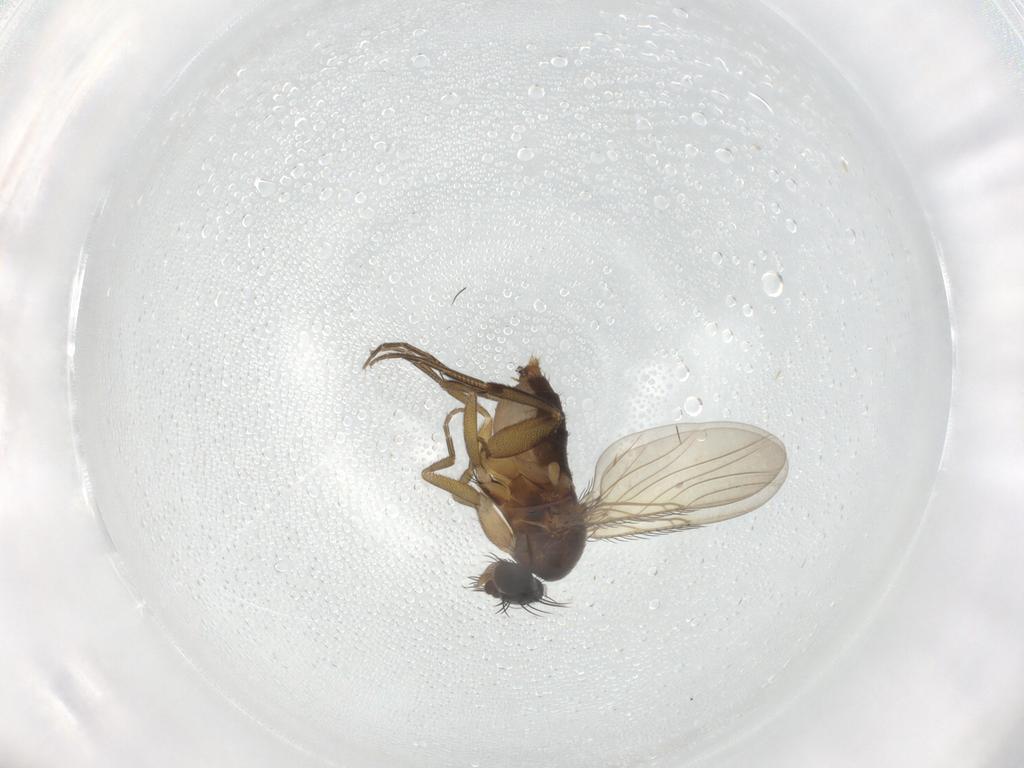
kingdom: Animalia
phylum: Arthropoda
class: Insecta
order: Diptera
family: Phoridae
